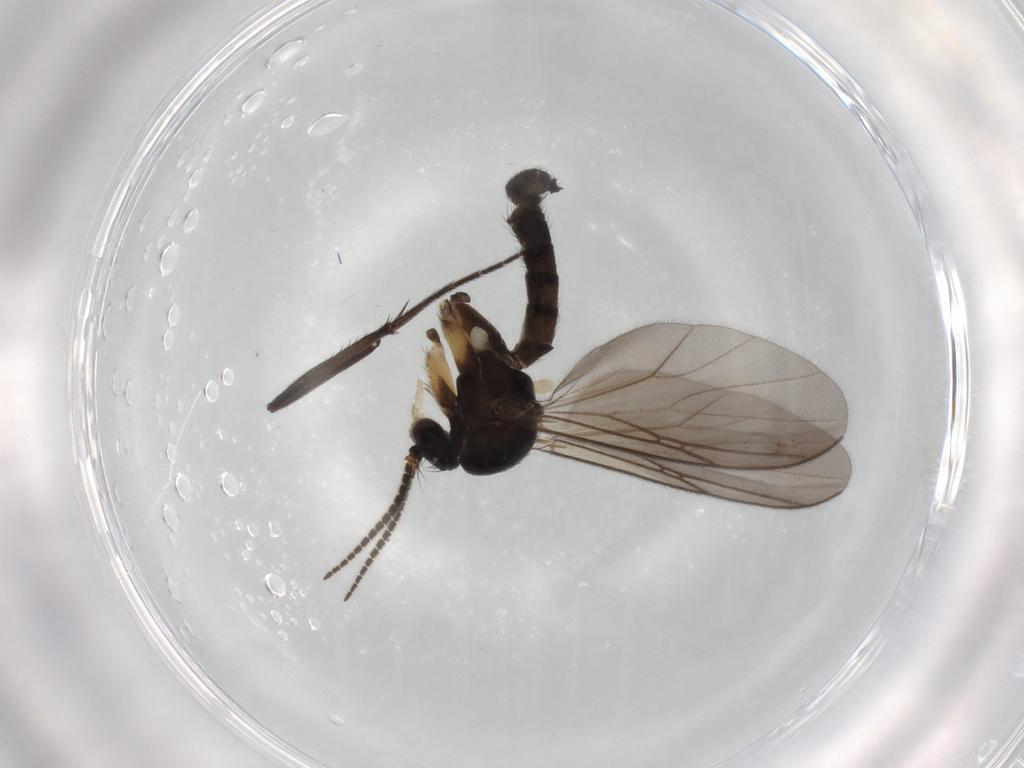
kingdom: Animalia
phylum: Arthropoda
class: Insecta
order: Diptera
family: Mycetophilidae
